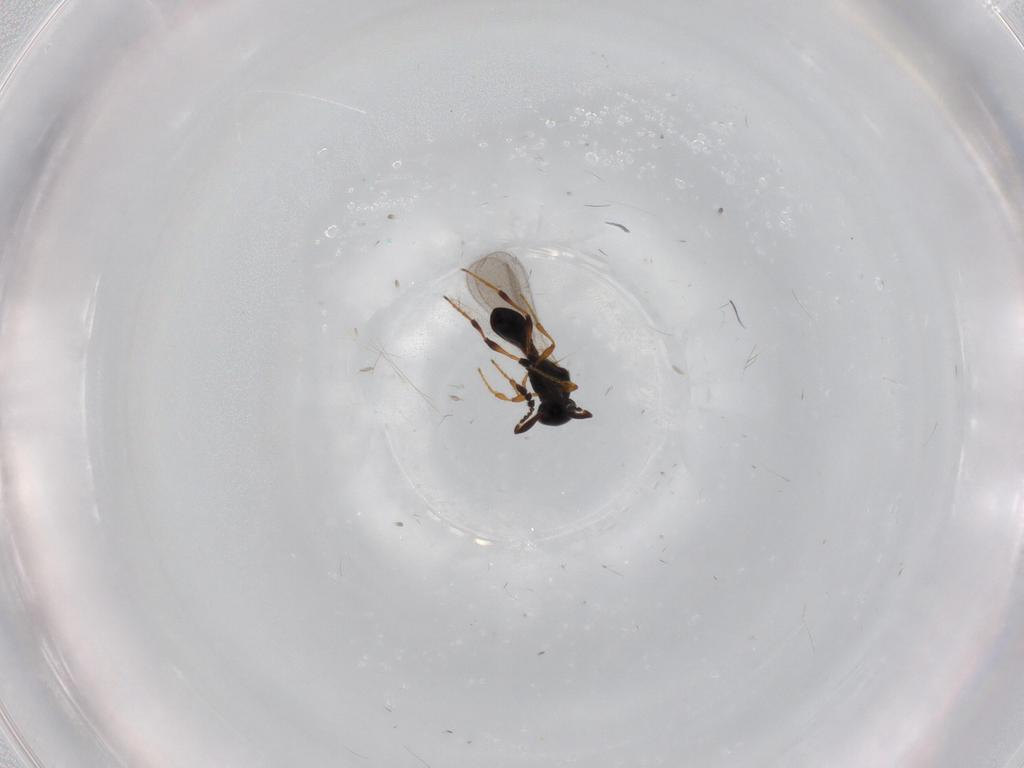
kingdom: Animalia
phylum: Arthropoda
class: Insecta
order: Hymenoptera
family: Platygastridae
